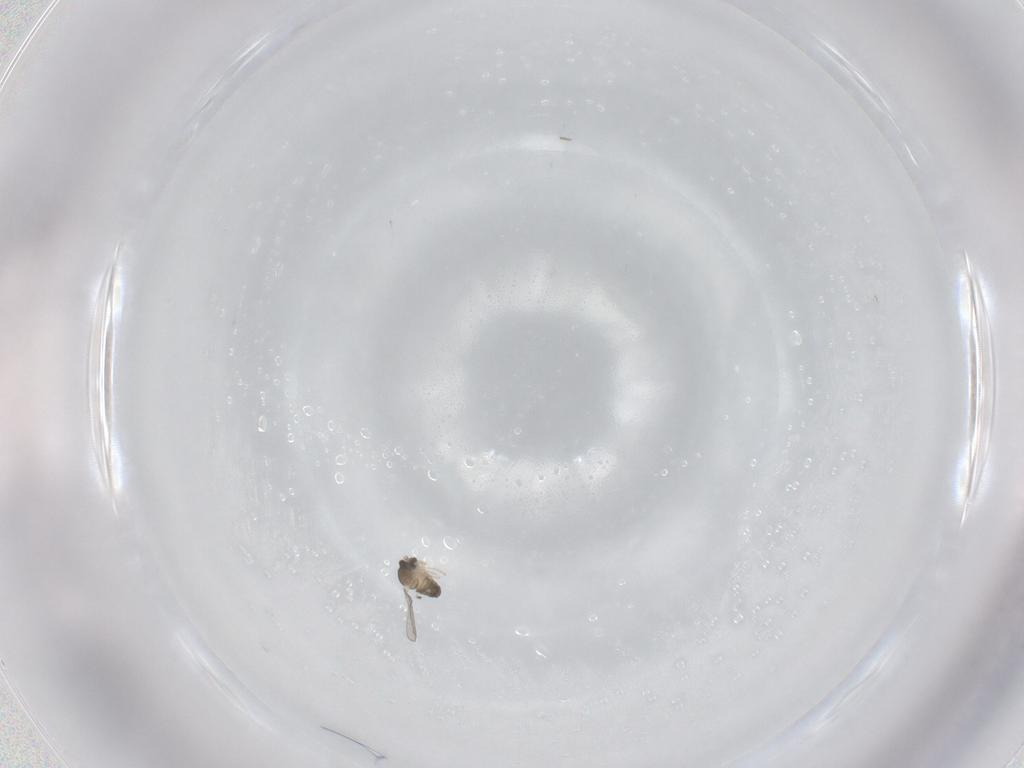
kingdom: Animalia
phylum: Arthropoda
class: Insecta
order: Diptera
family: Cecidomyiidae
